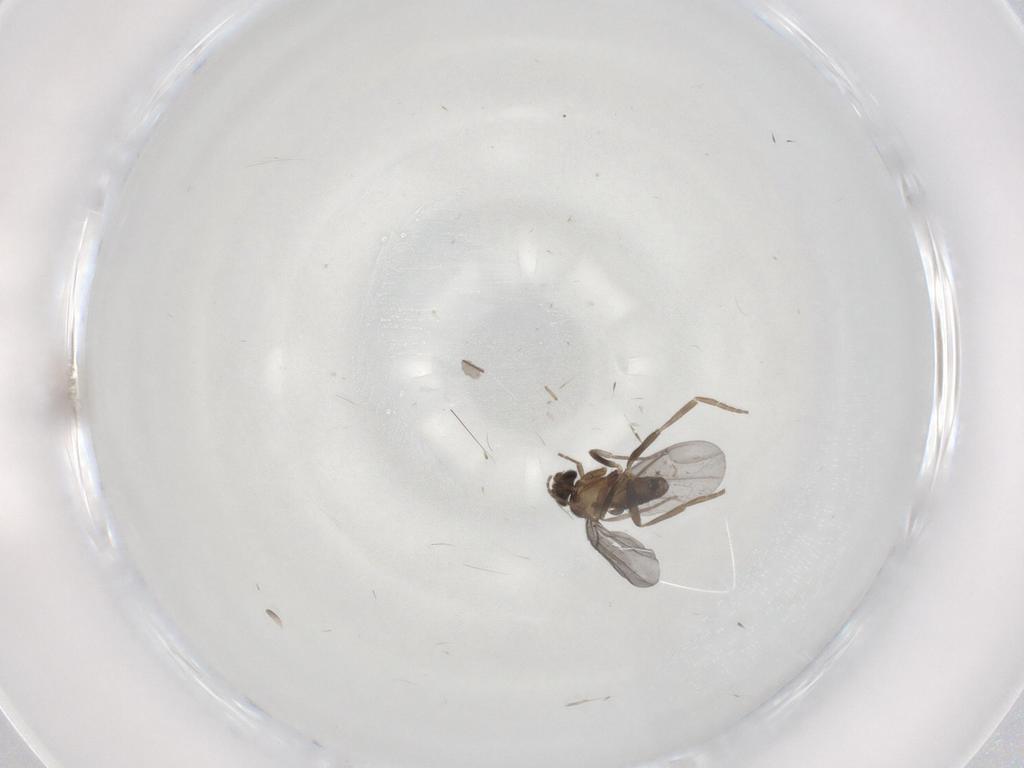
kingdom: Animalia
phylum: Arthropoda
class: Insecta
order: Diptera
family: Phoridae
